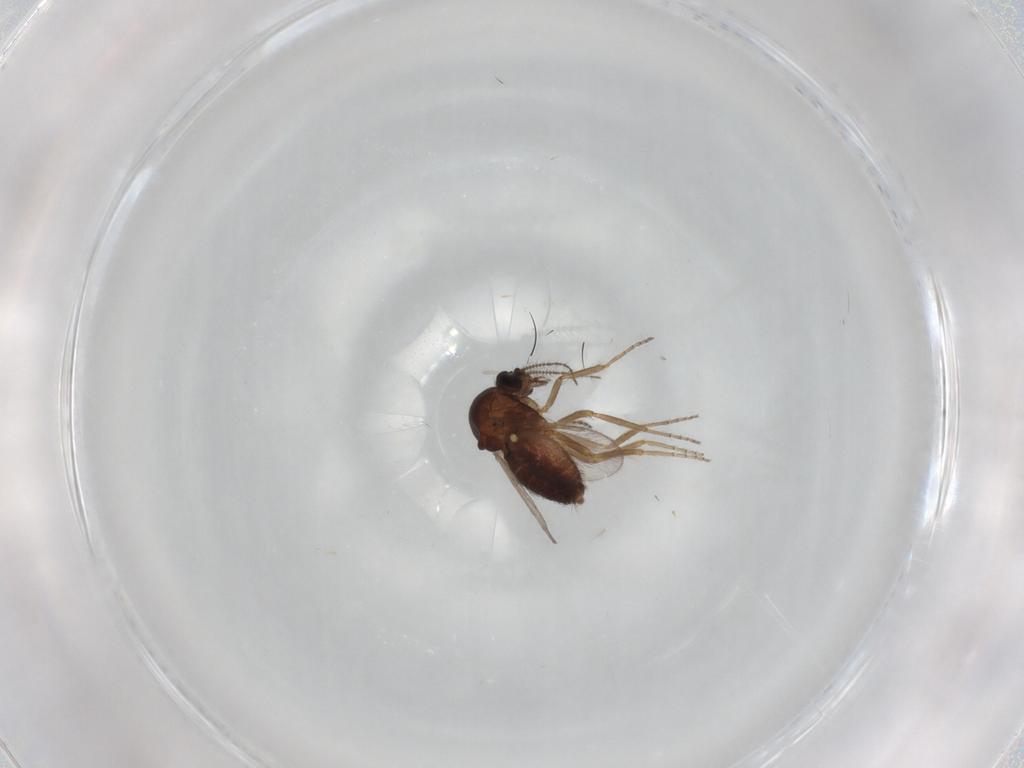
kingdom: Animalia
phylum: Arthropoda
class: Insecta
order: Diptera
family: Ceratopogonidae
